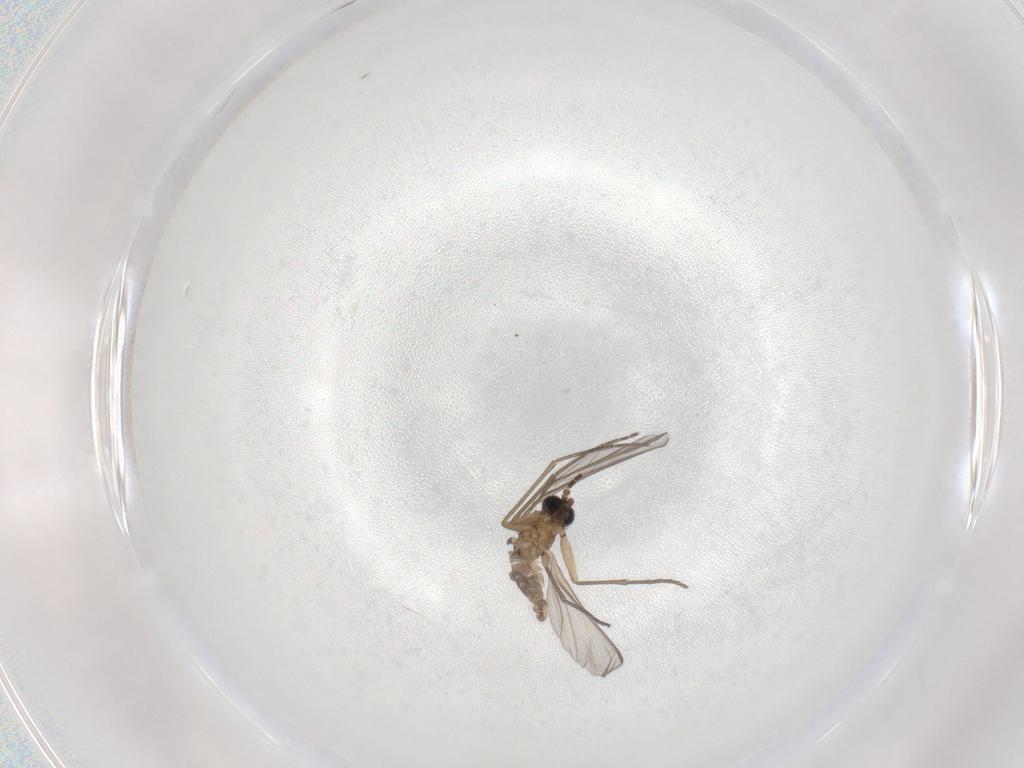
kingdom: Animalia
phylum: Arthropoda
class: Insecta
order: Diptera
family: Sciaridae
